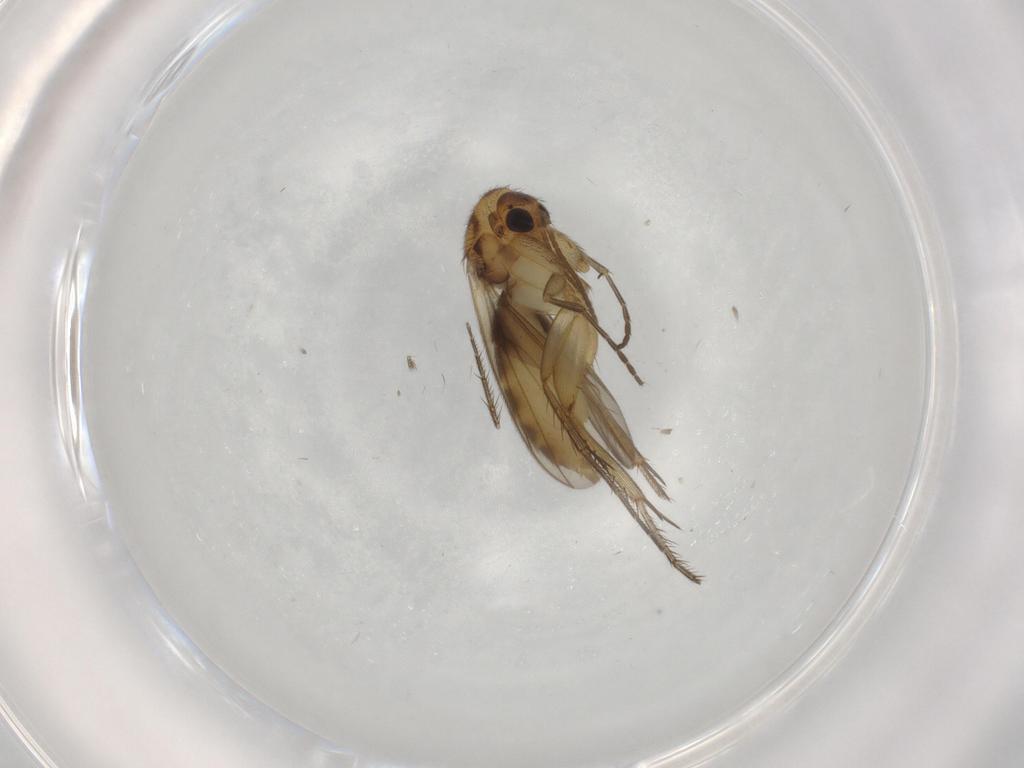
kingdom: Animalia
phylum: Arthropoda
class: Insecta
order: Diptera
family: Mycetophilidae
